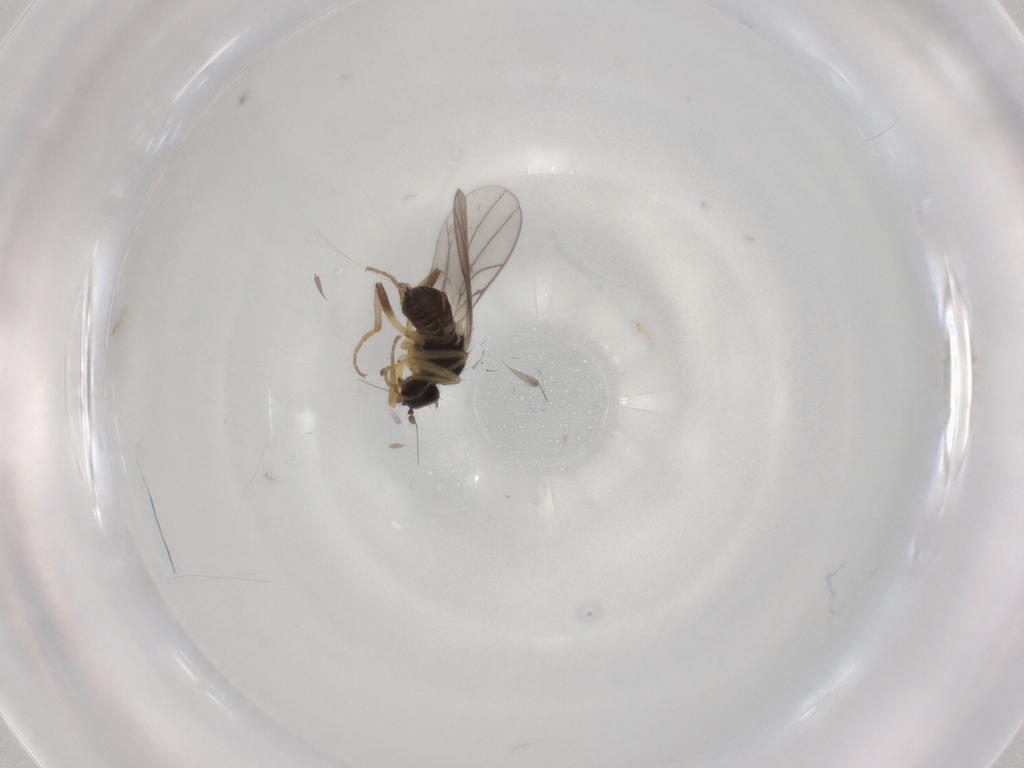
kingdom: Animalia
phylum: Arthropoda
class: Insecta
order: Diptera
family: Hybotidae
